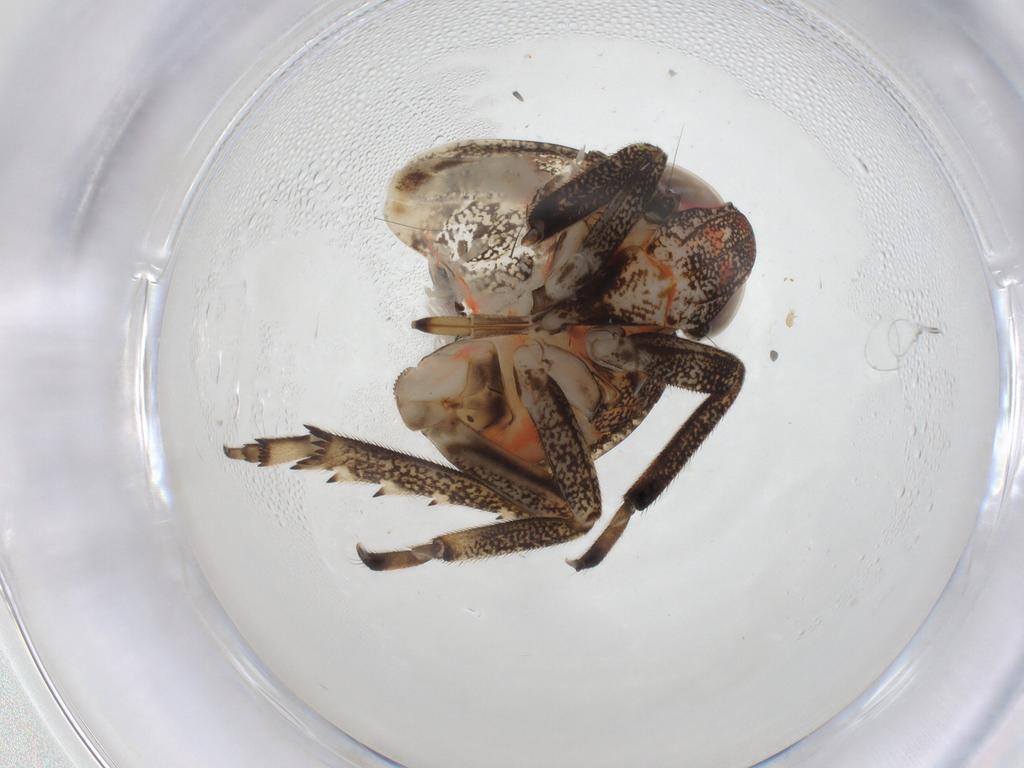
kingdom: Animalia
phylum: Arthropoda
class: Insecta
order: Hemiptera
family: Issidae
